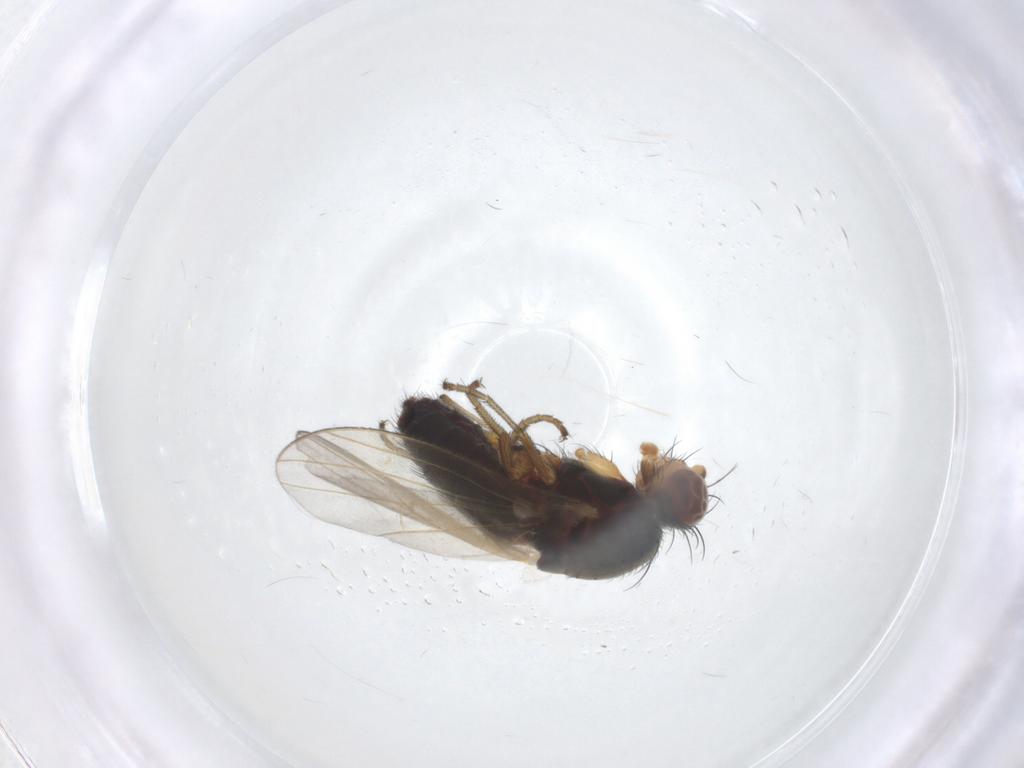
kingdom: Animalia
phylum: Arthropoda
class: Insecta
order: Diptera
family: Heleomyzidae
